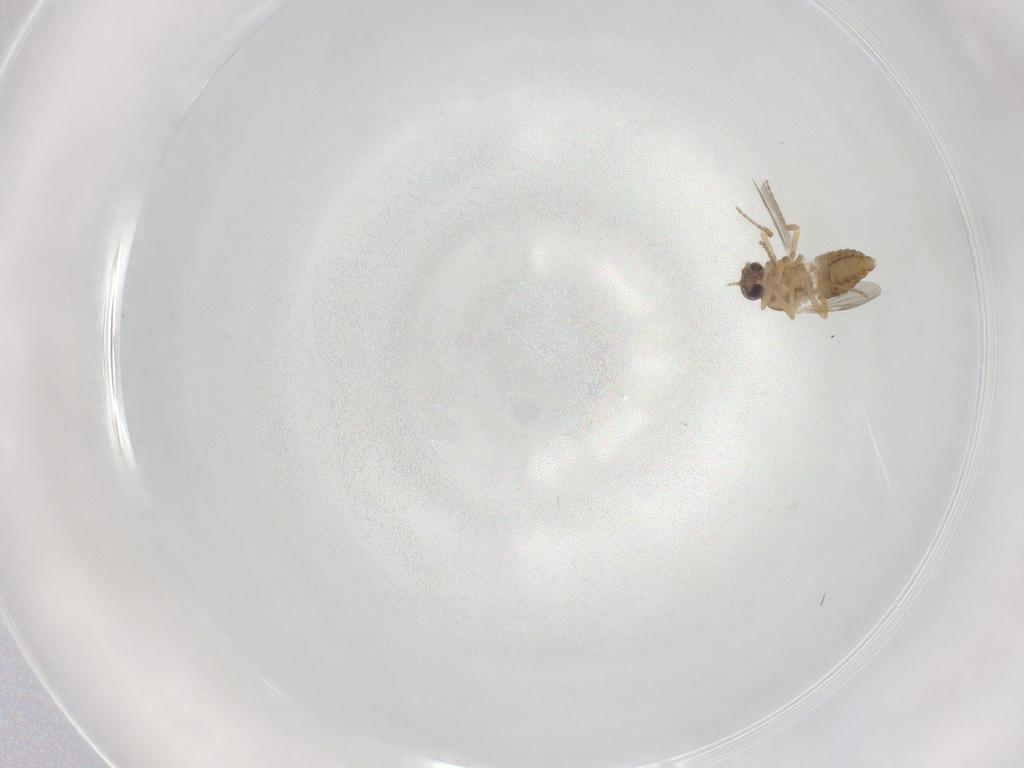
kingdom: Animalia
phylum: Arthropoda
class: Insecta
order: Diptera
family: Ceratopogonidae
